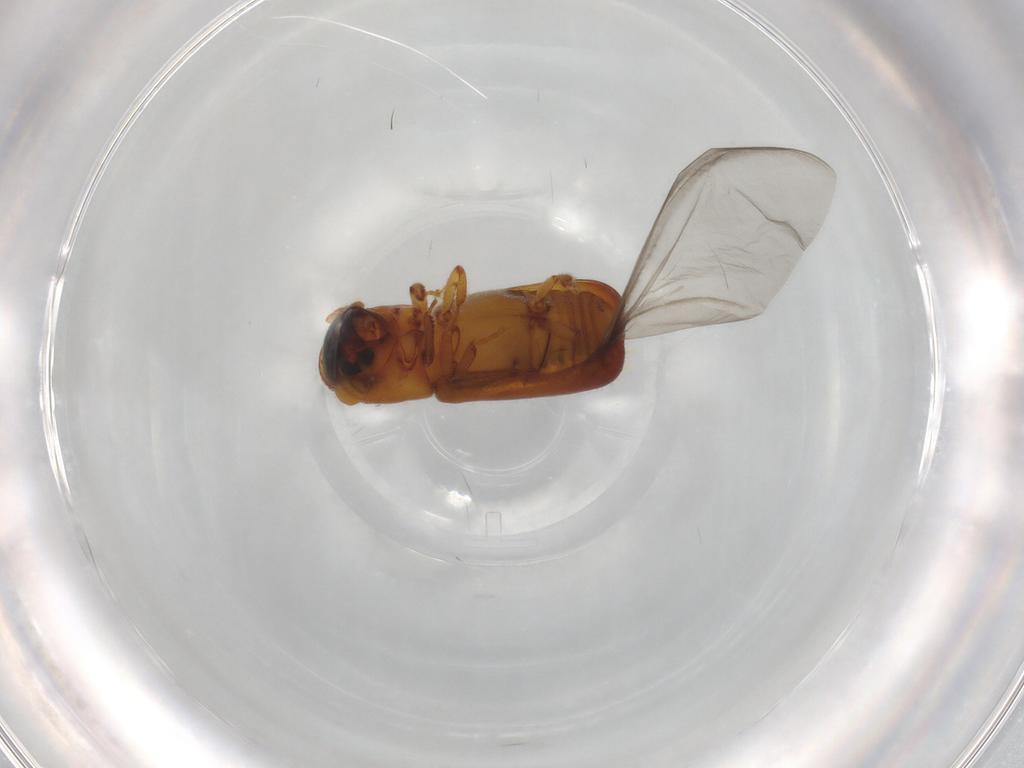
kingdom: Animalia
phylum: Arthropoda
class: Insecta
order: Coleoptera
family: Curculionidae
